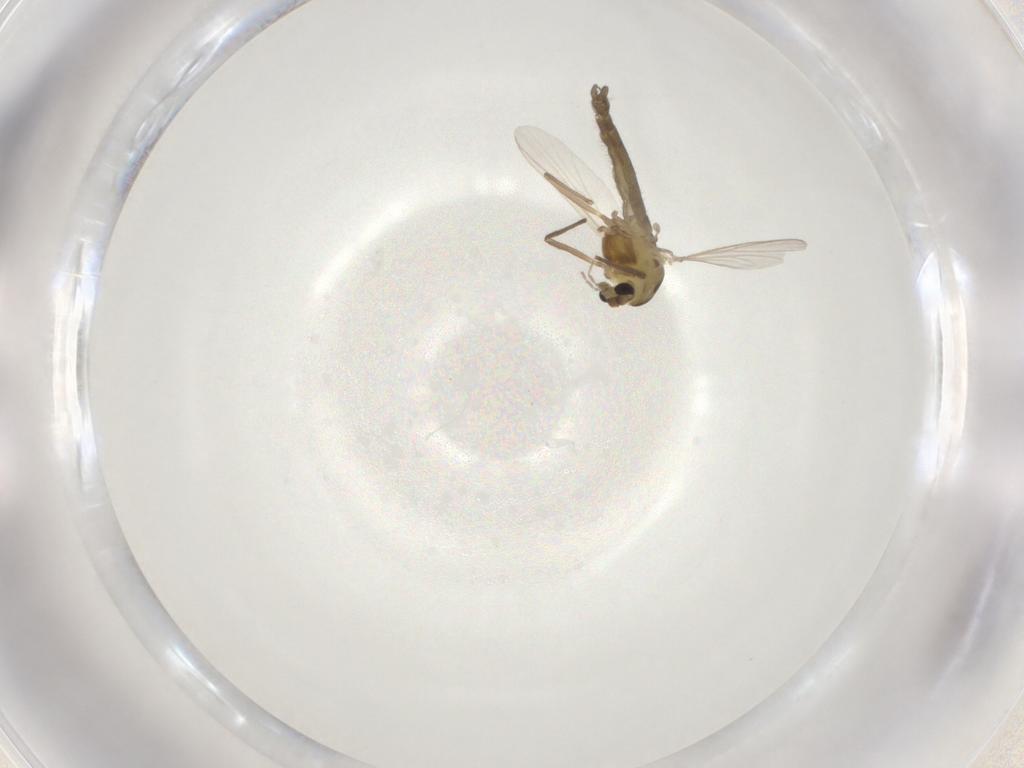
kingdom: Animalia
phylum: Arthropoda
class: Insecta
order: Diptera
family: Chironomidae
